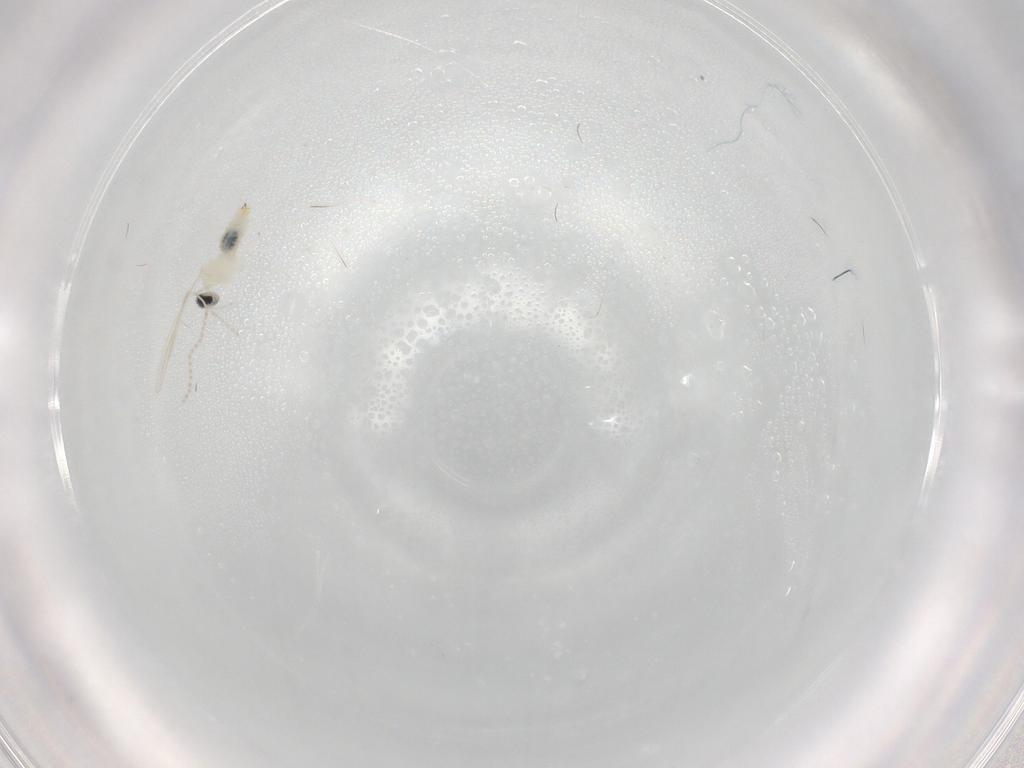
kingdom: Animalia
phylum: Arthropoda
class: Insecta
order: Diptera
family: Cecidomyiidae
